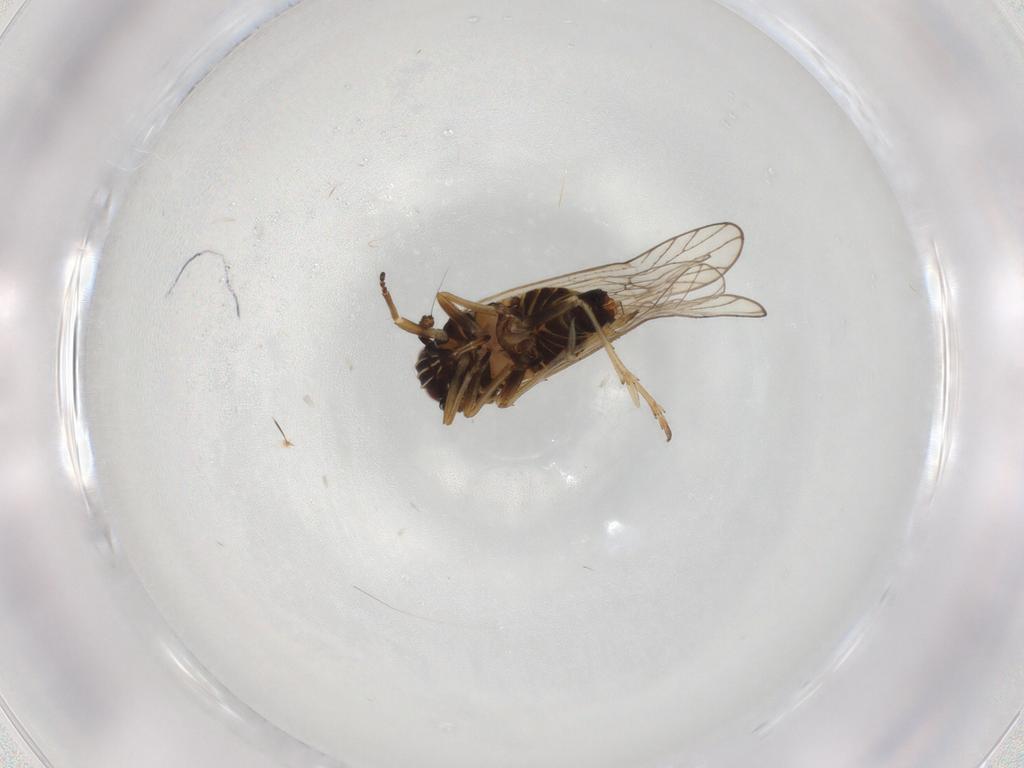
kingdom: Animalia
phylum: Arthropoda
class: Insecta
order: Hemiptera
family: Delphacidae
